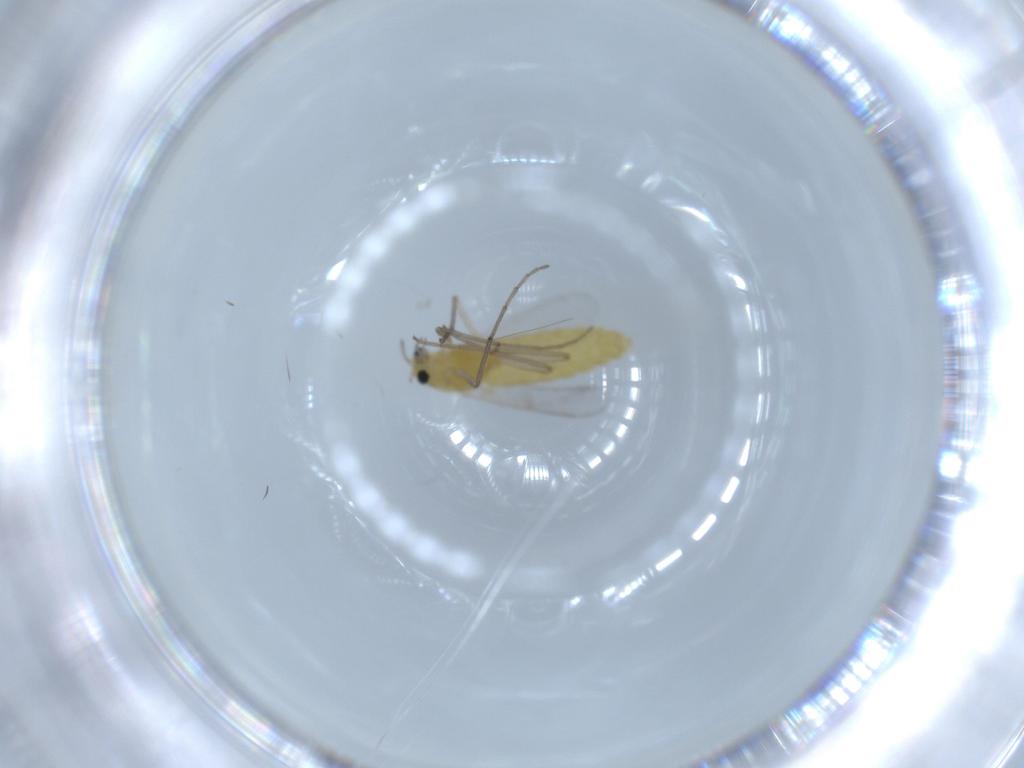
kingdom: Animalia
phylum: Arthropoda
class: Insecta
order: Diptera
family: Chironomidae
